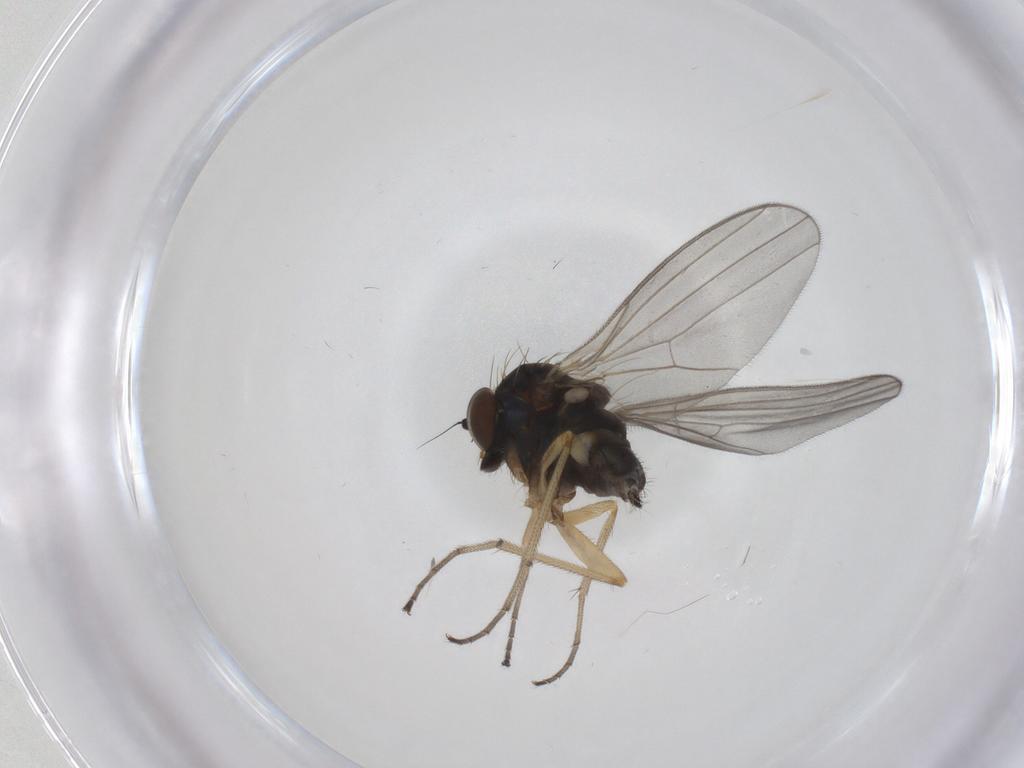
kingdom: Animalia
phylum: Arthropoda
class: Insecta
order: Diptera
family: Dolichopodidae
